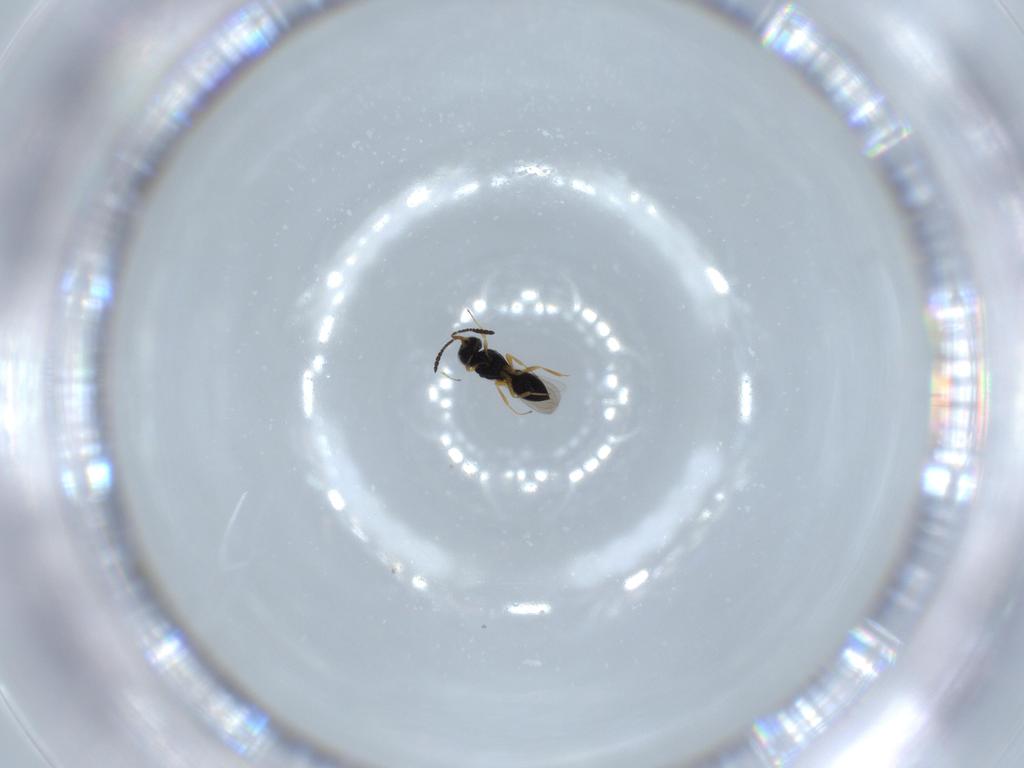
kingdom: Animalia
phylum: Arthropoda
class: Insecta
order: Hymenoptera
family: Scelionidae
